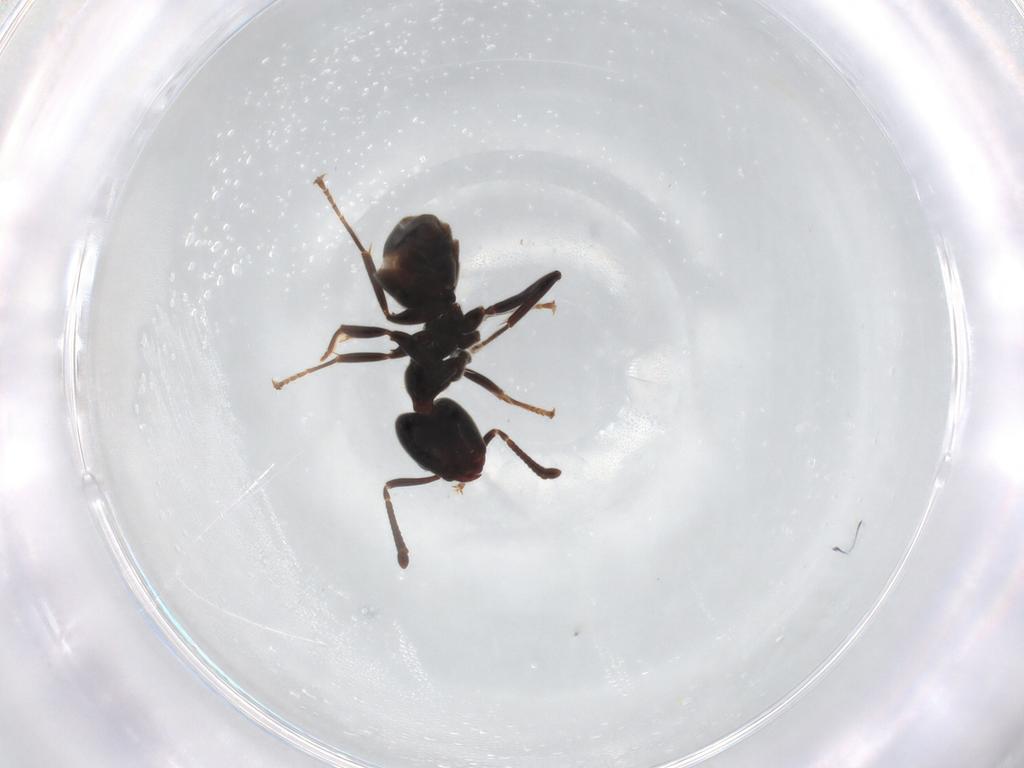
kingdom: Animalia
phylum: Arthropoda
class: Insecta
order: Hymenoptera
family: Formicidae
